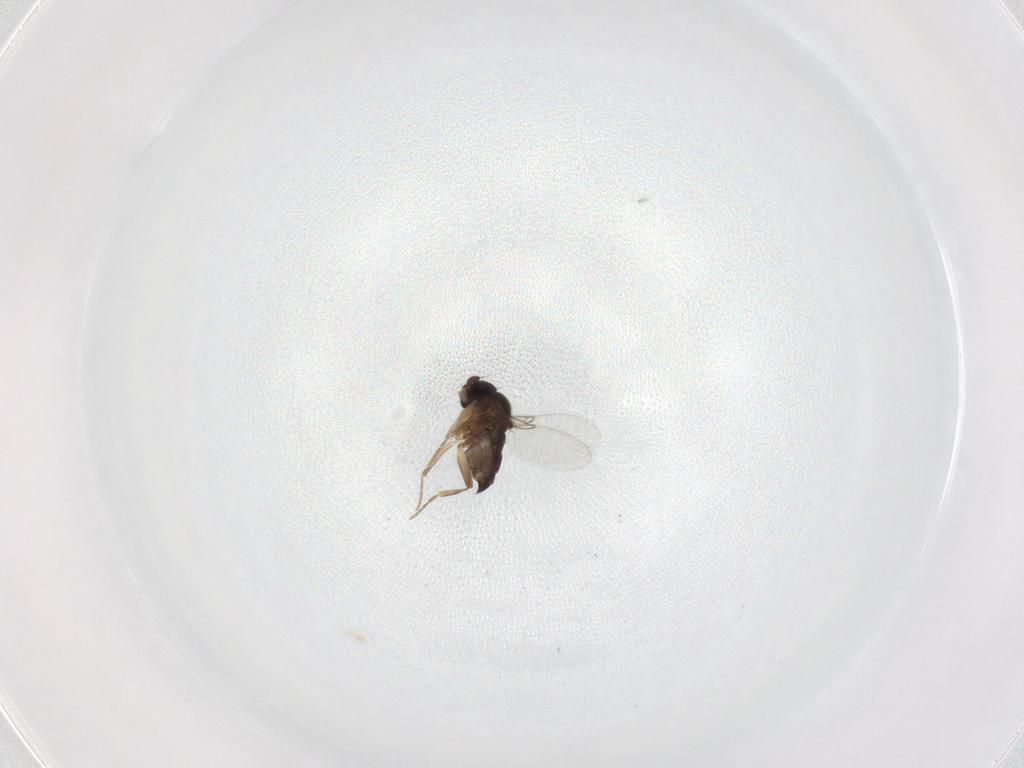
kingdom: Animalia
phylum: Arthropoda
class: Insecta
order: Diptera
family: Phoridae
